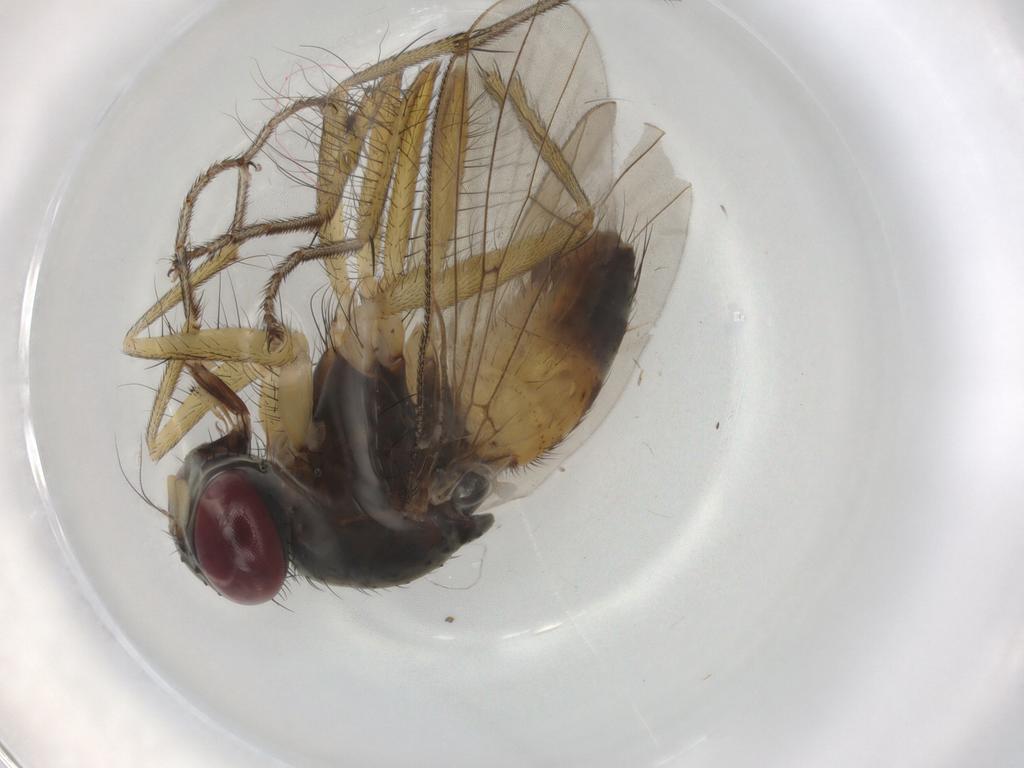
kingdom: Animalia
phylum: Arthropoda
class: Insecta
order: Diptera
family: Muscidae
